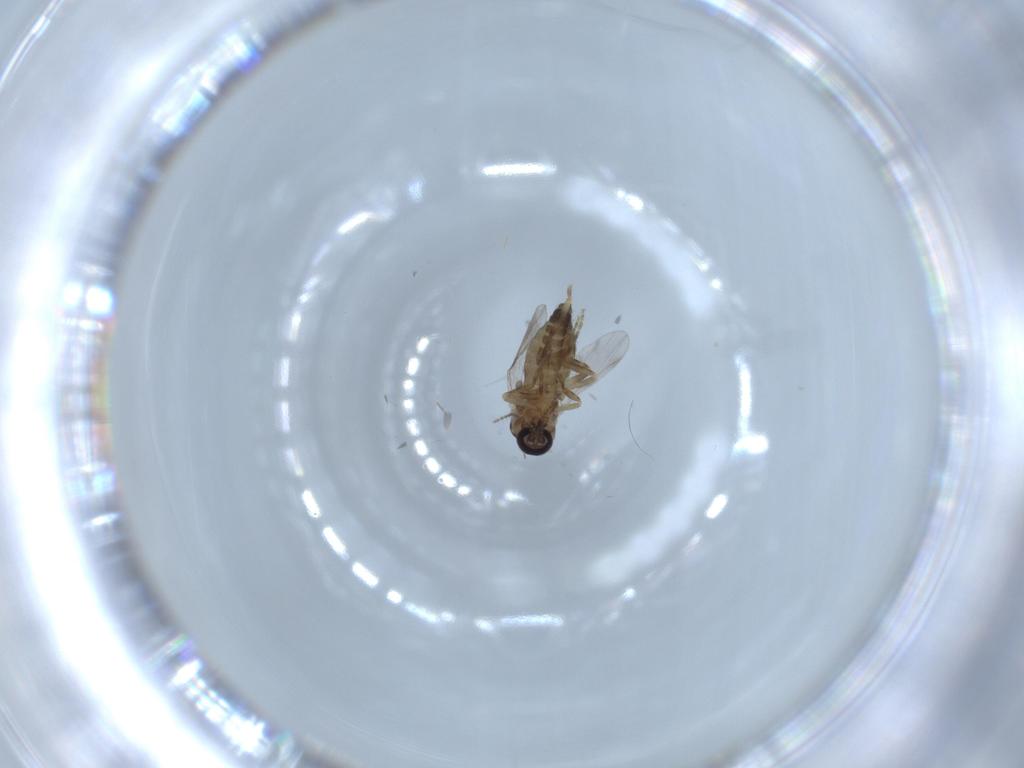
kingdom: Animalia
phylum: Arthropoda
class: Insecta
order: Diptera
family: Ceratopogonidae
